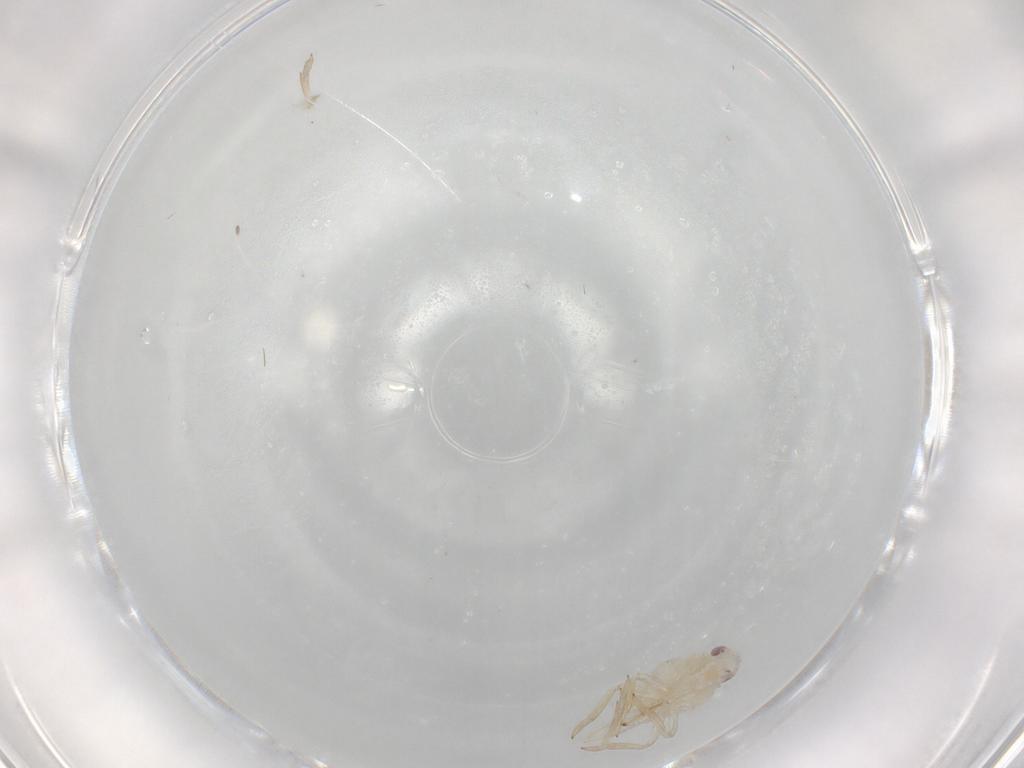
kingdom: Animalia
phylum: Arthropoda
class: Insecta
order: Hemiptera
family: Tropiduchidae
